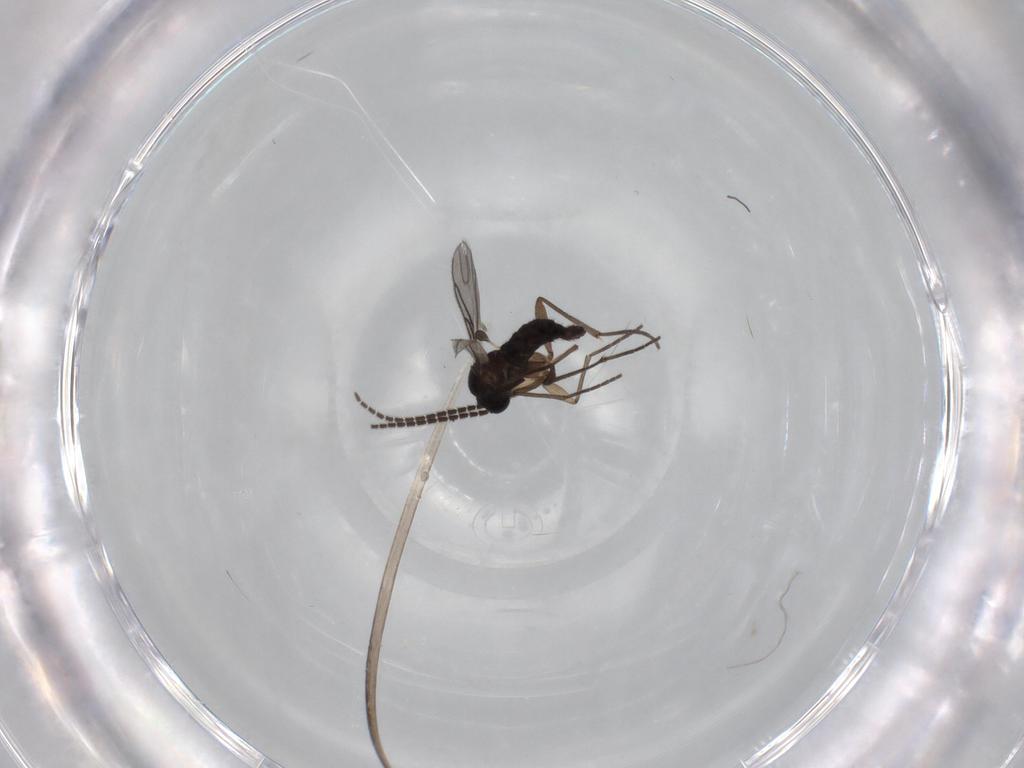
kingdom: Animalia
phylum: Arthropoda
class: Insecta
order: Diptera
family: Sciaridae
